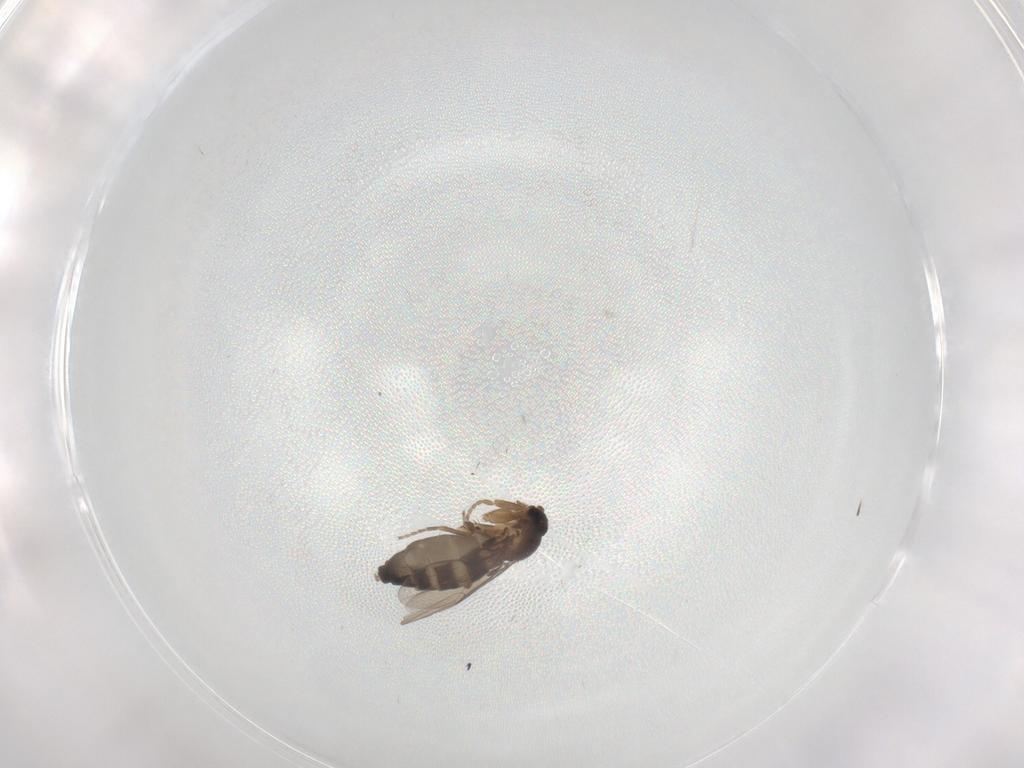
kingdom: Animalia
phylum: Arthropoda
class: Insecta
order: Diptera
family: Phoridae
